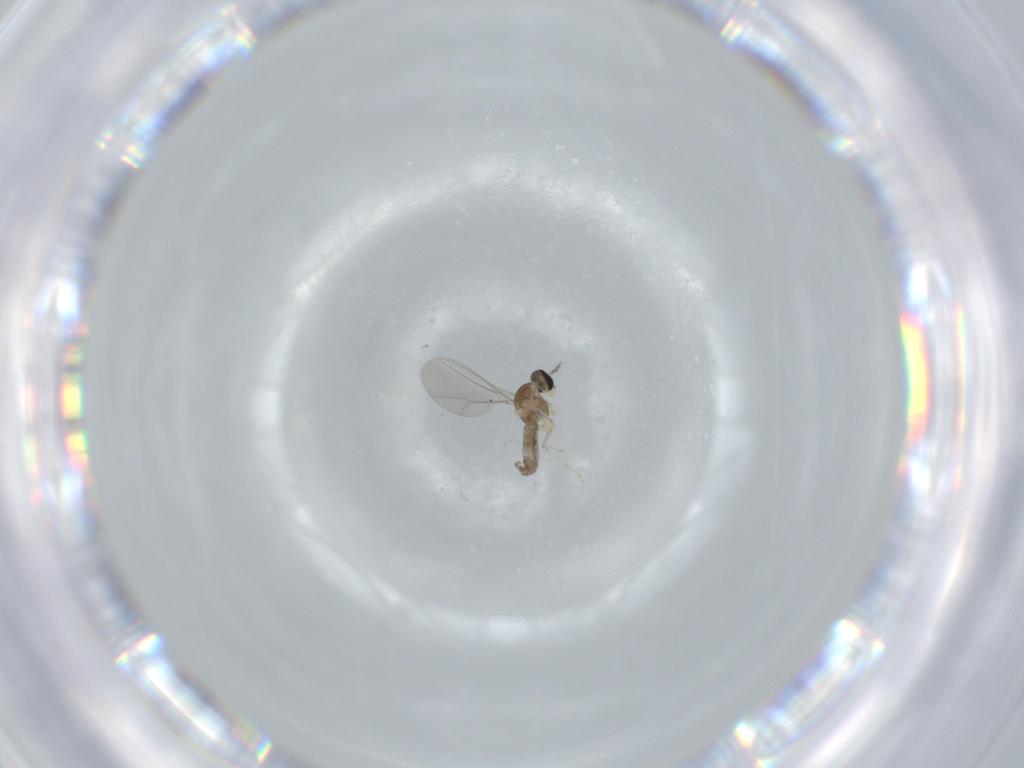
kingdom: Animalia
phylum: Arthropoda
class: Insecta
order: Diptera
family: Cecidomyiidae
